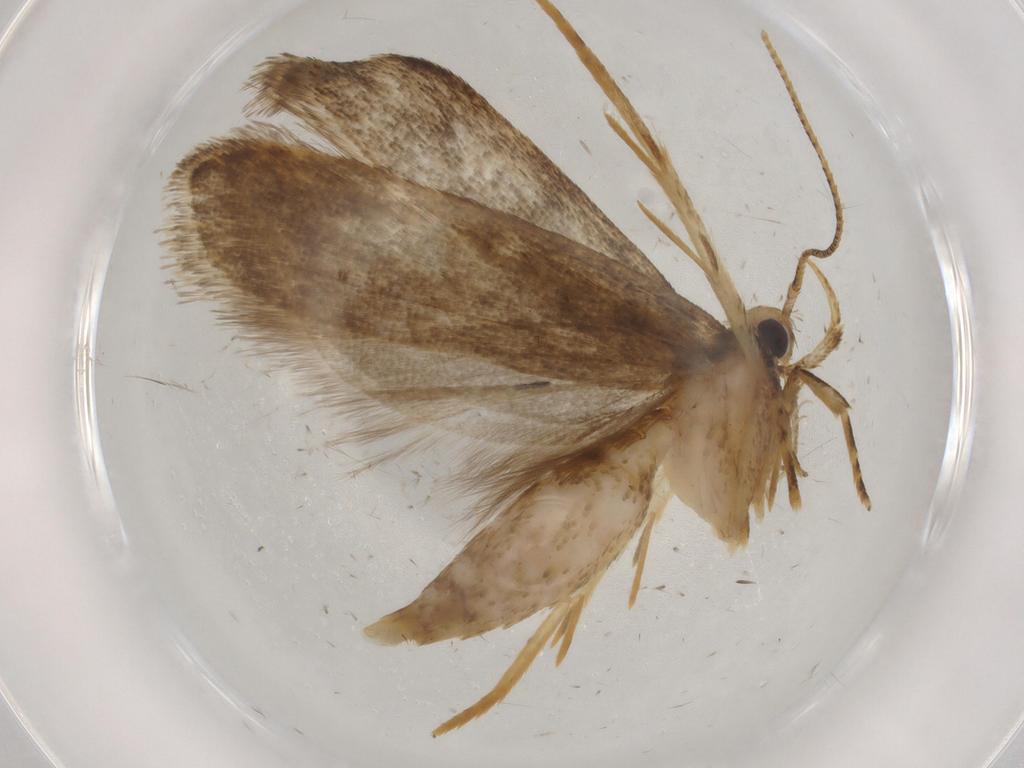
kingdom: Animalia
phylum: Arthropoda
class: Insecta
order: Lepidoptera
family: Autostichidae
